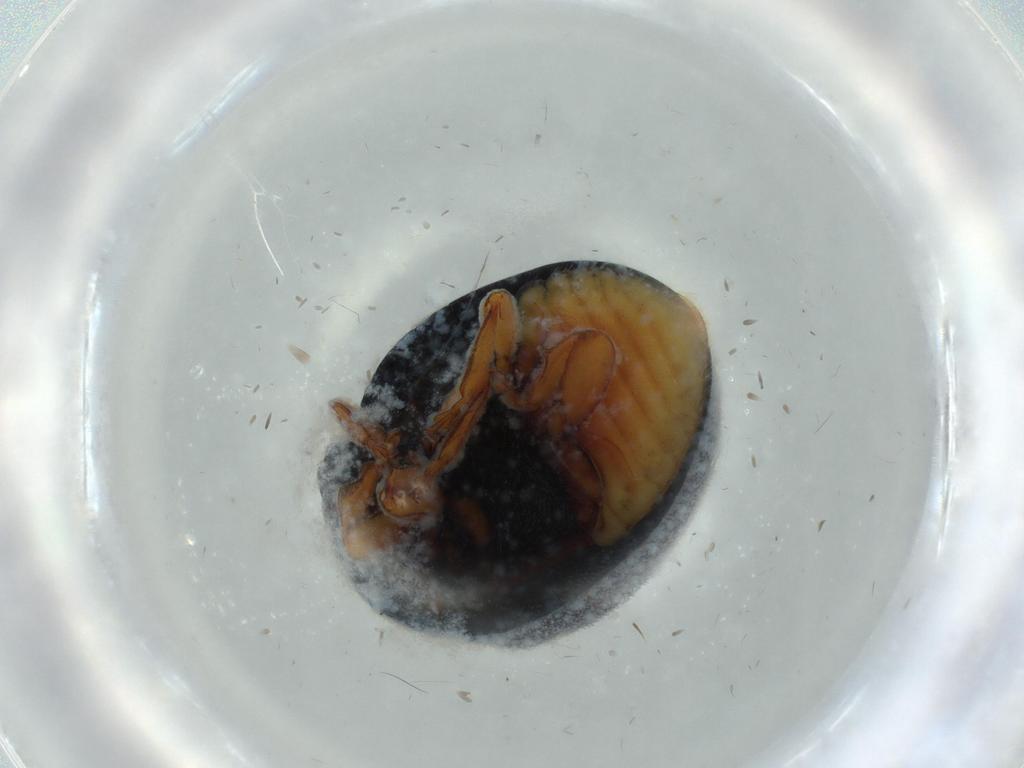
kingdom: Animalia
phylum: Arthropoda
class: Insecta
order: Coleoptera
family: Coccinellidae
